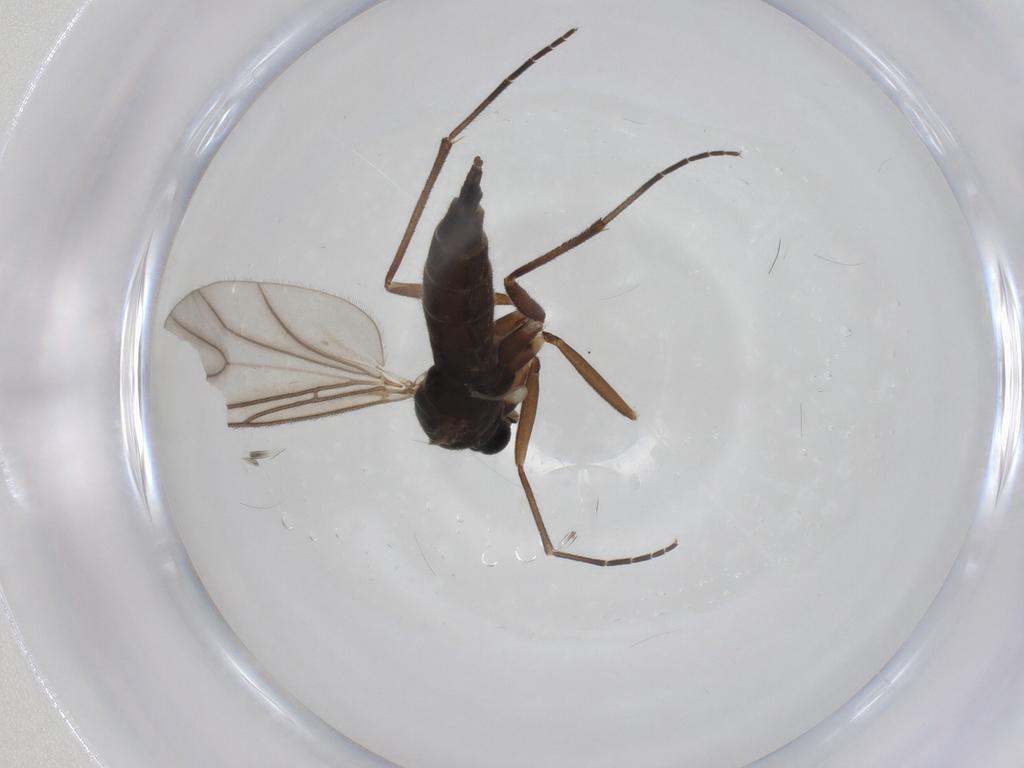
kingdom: Animalia
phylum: Arthropoda
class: Insecta
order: Diptera
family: Sciaridae
